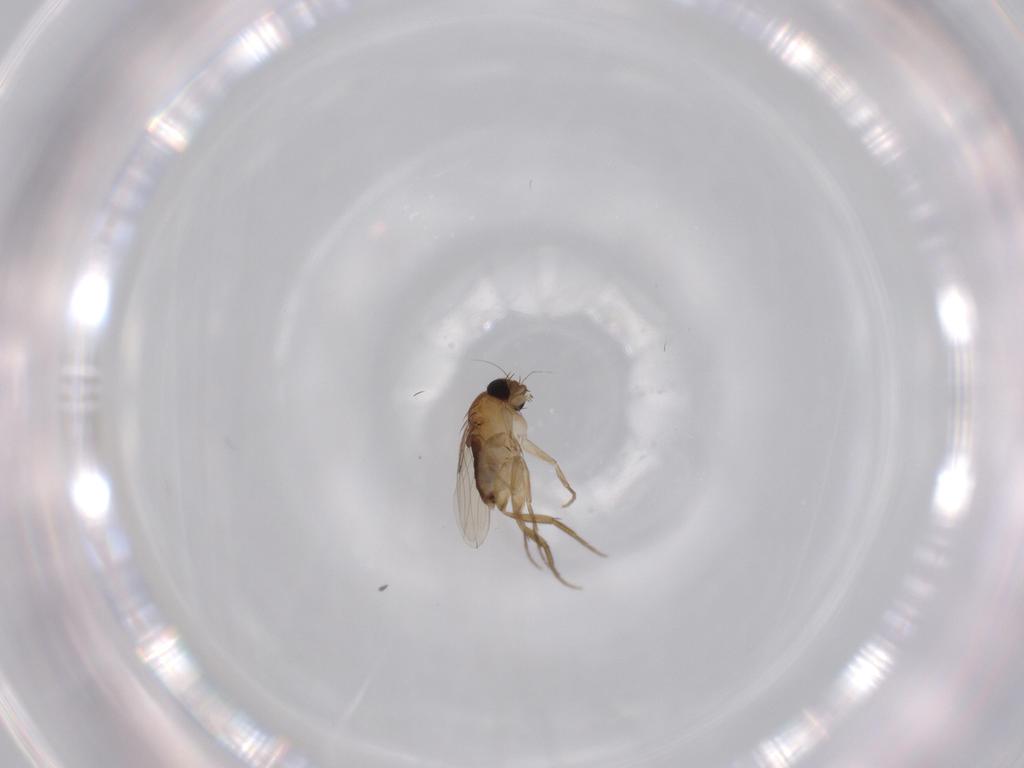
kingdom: Animalia
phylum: Arthropoda
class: Insecta
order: Diptera
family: Phoridae
